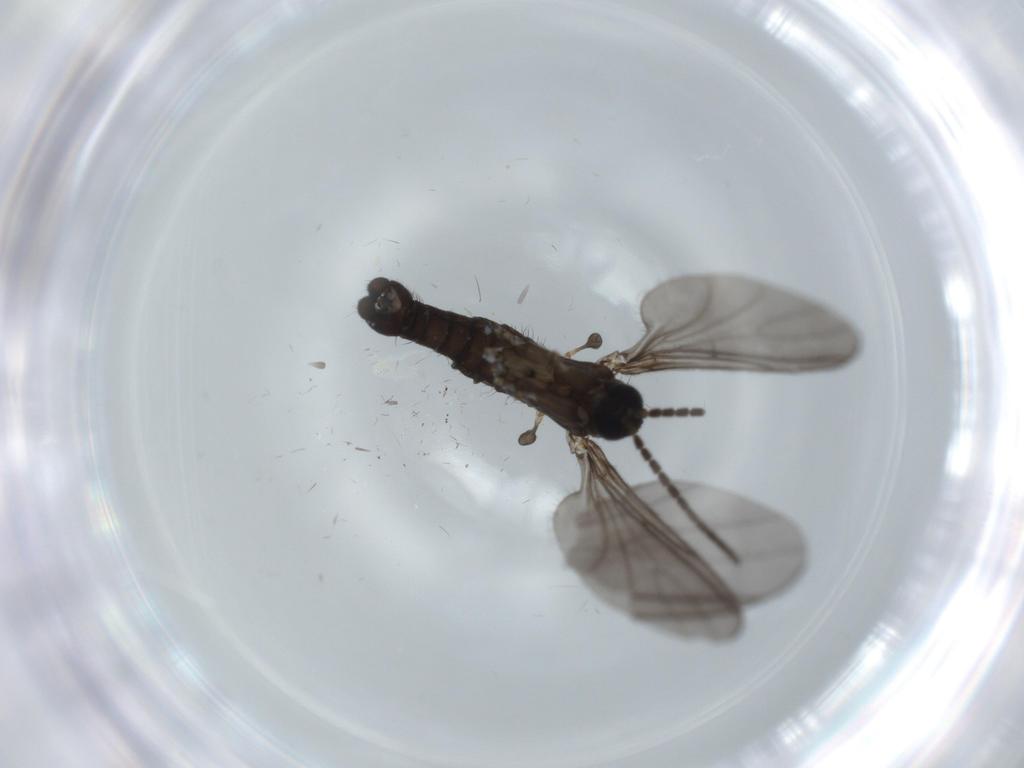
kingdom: Animalia
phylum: Arthropoda
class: Insecta
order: Diptera
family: Sciaridae
